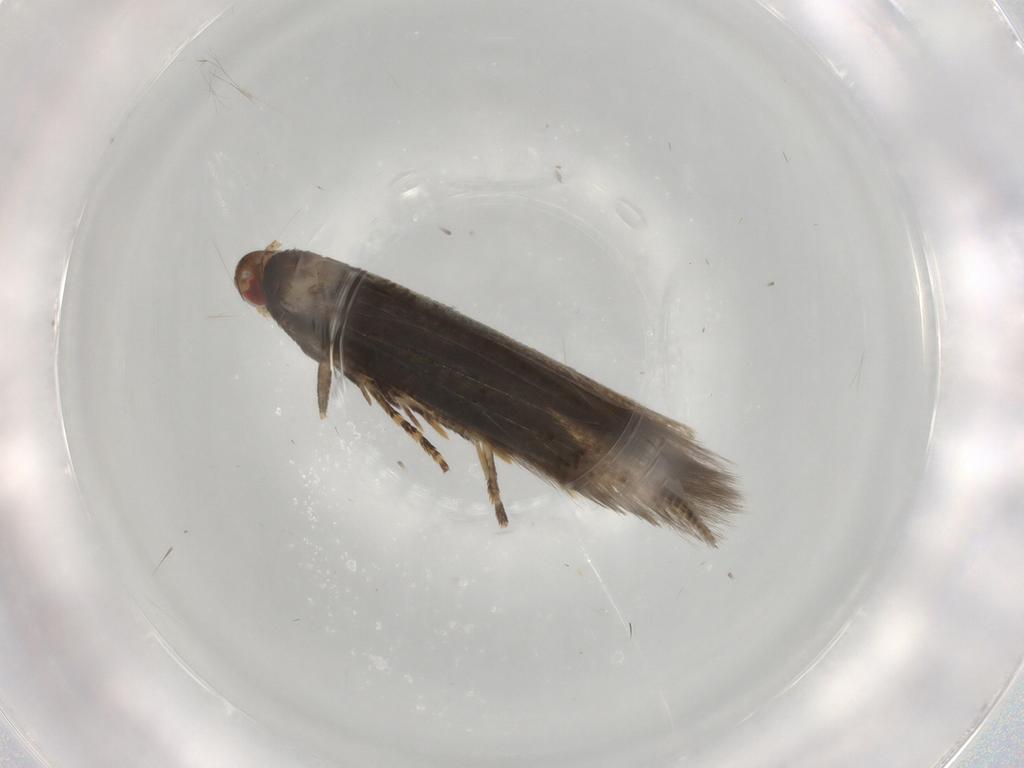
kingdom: Animalia
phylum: Arthropoda
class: Insecta
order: Lepidoptera
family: Momphidae
